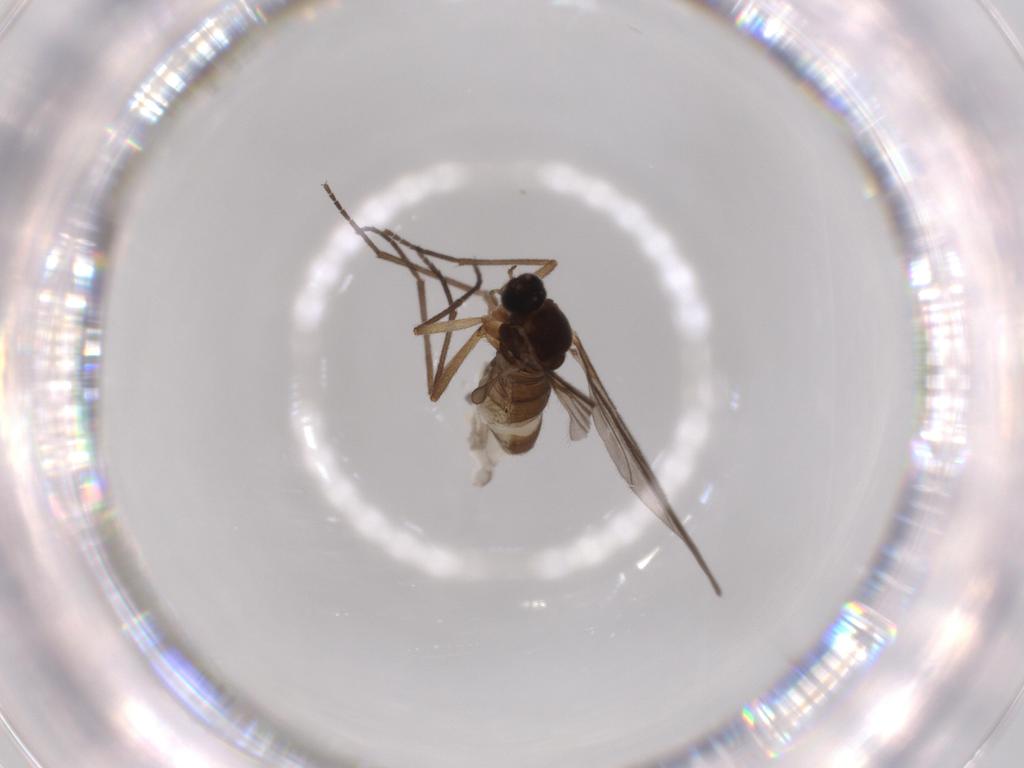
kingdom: Animalia
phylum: Arthropoda
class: Insecta
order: Diptera
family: Sciaridae
